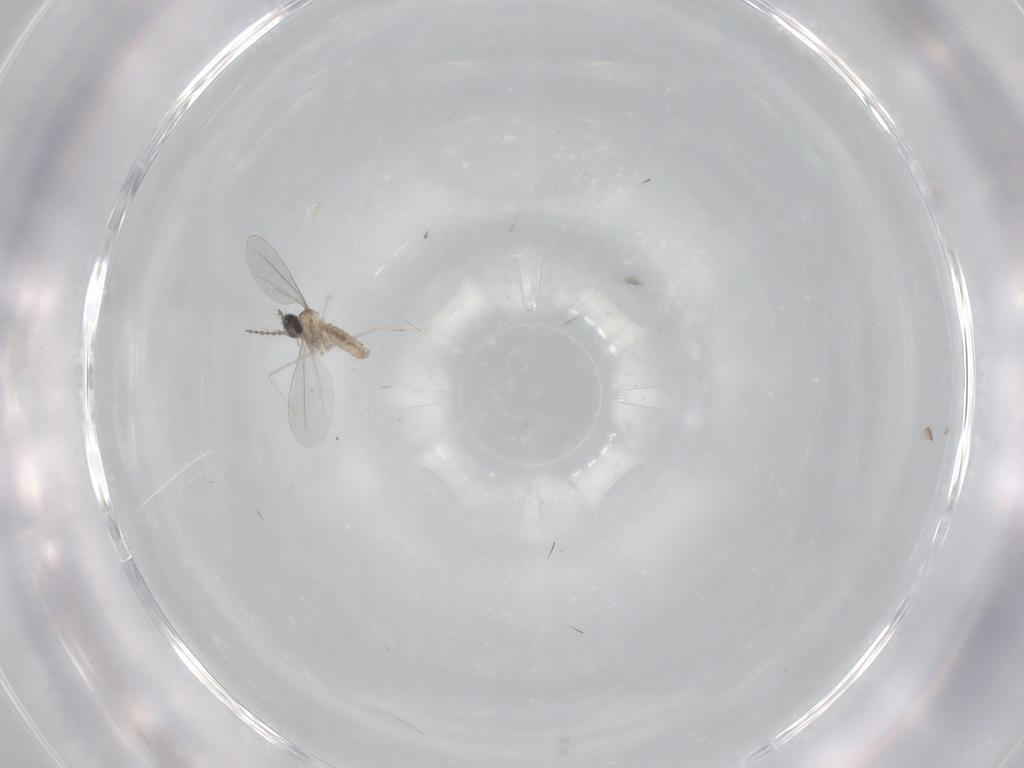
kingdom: Animalia
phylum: Arthropoda
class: Insecta
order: Diptera
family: Cecidomyiidae
